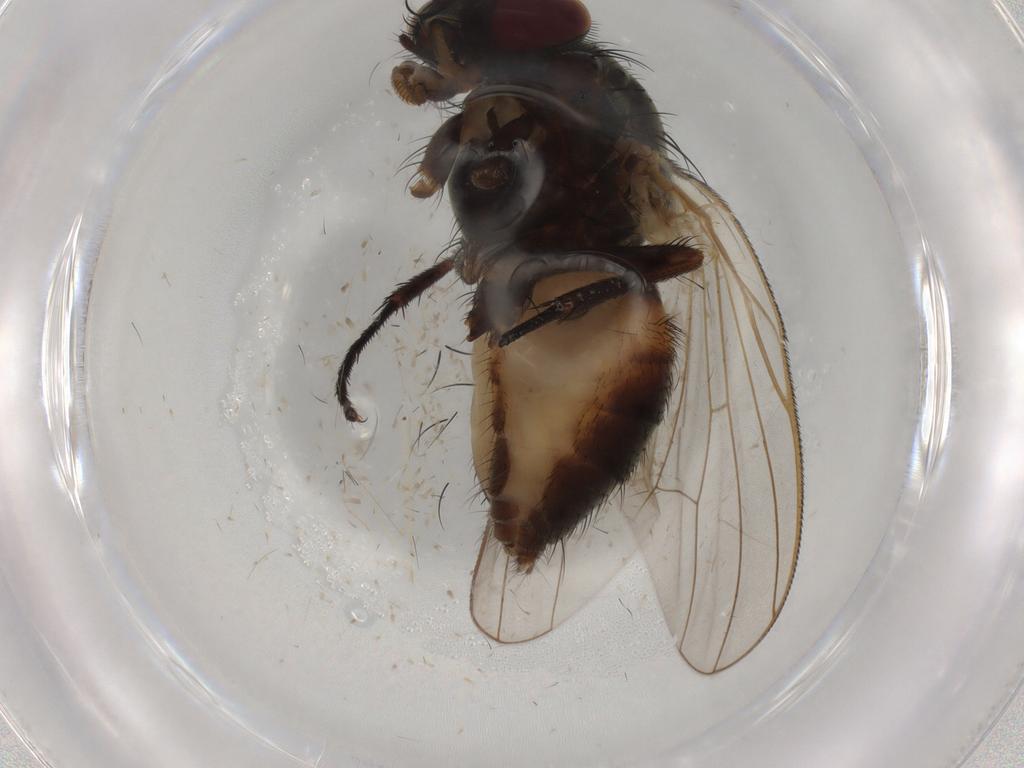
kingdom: Animalia
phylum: Arthropoda
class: Insecta
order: Diptera
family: Fannia
